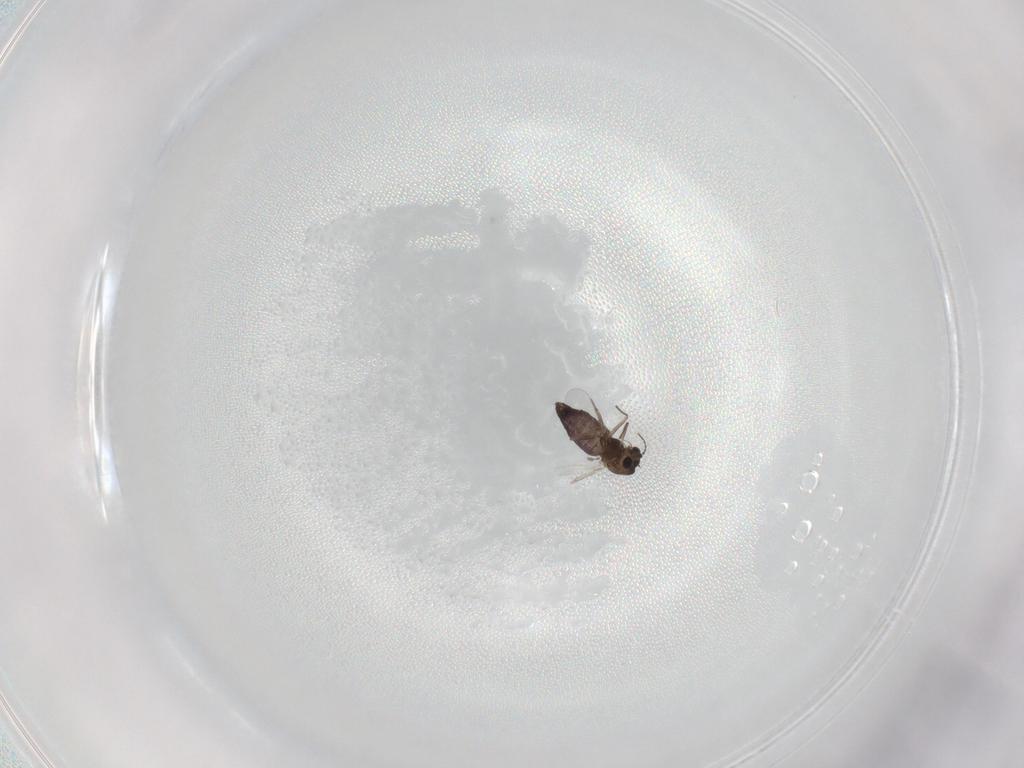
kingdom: Animalia
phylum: Arthropoda
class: Insecta
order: Diptera
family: Chironomidae
